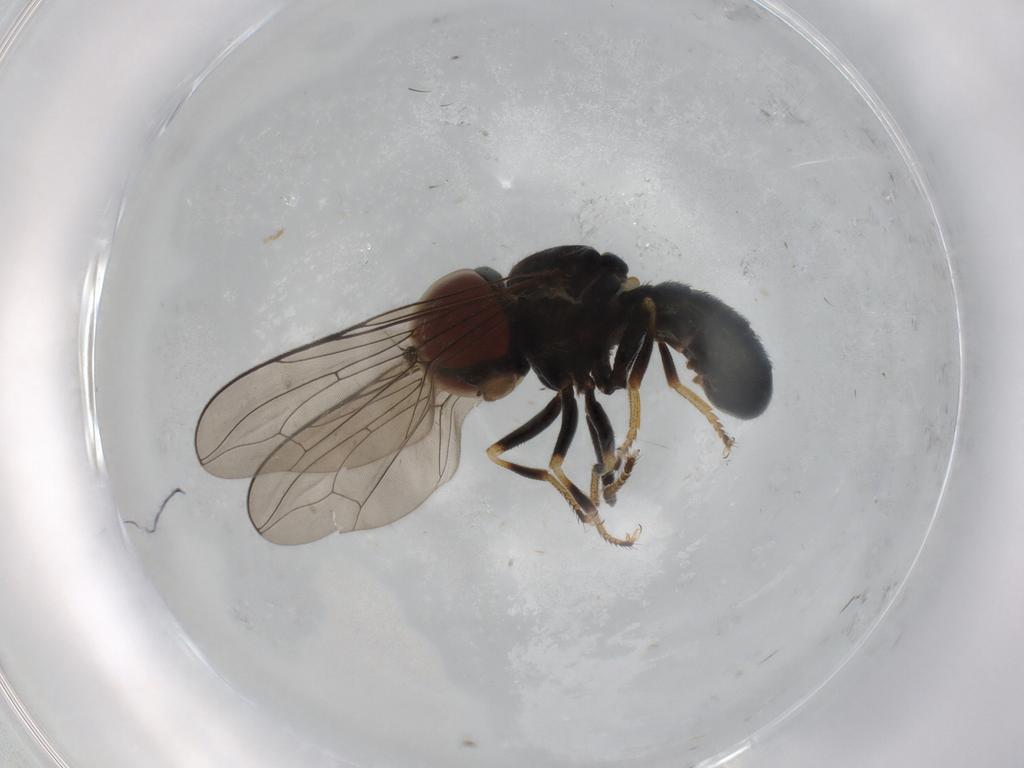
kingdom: Animalia
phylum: Arthropoda
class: Insecta
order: Diptera
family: Pipunculidae
